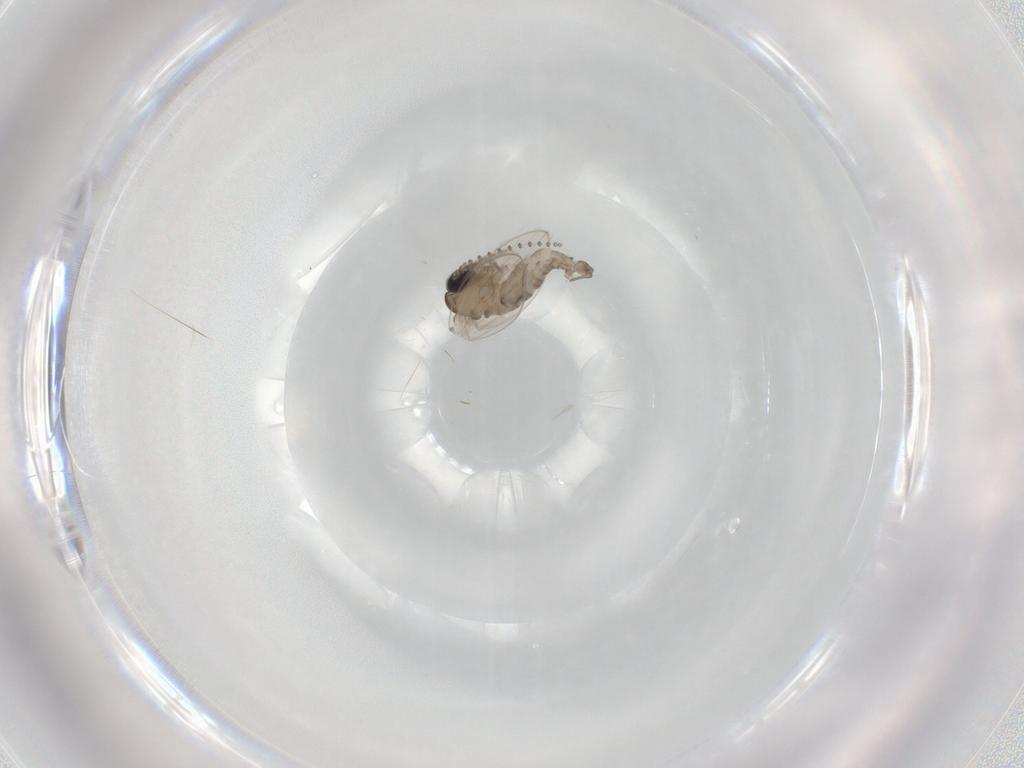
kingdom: Animalia
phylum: Arthropoda
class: Insecta
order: Diptera
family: Psychodidae
